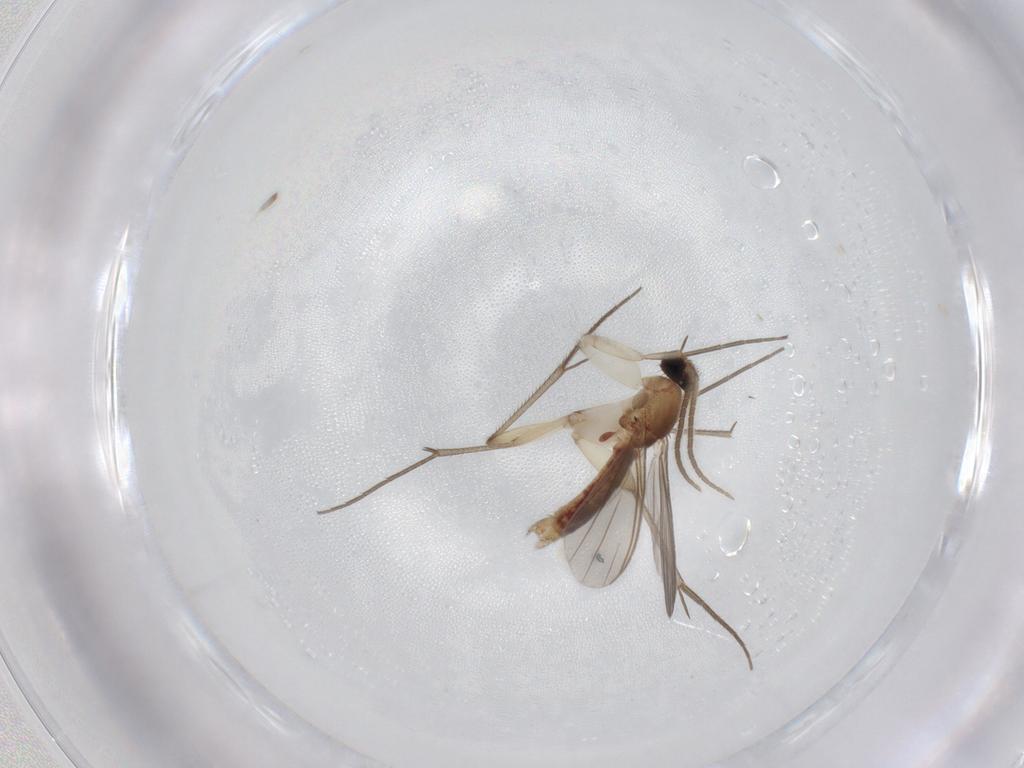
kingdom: Animalia
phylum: Arthropoda
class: Insecta
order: Diptera
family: Mycetophilidae
